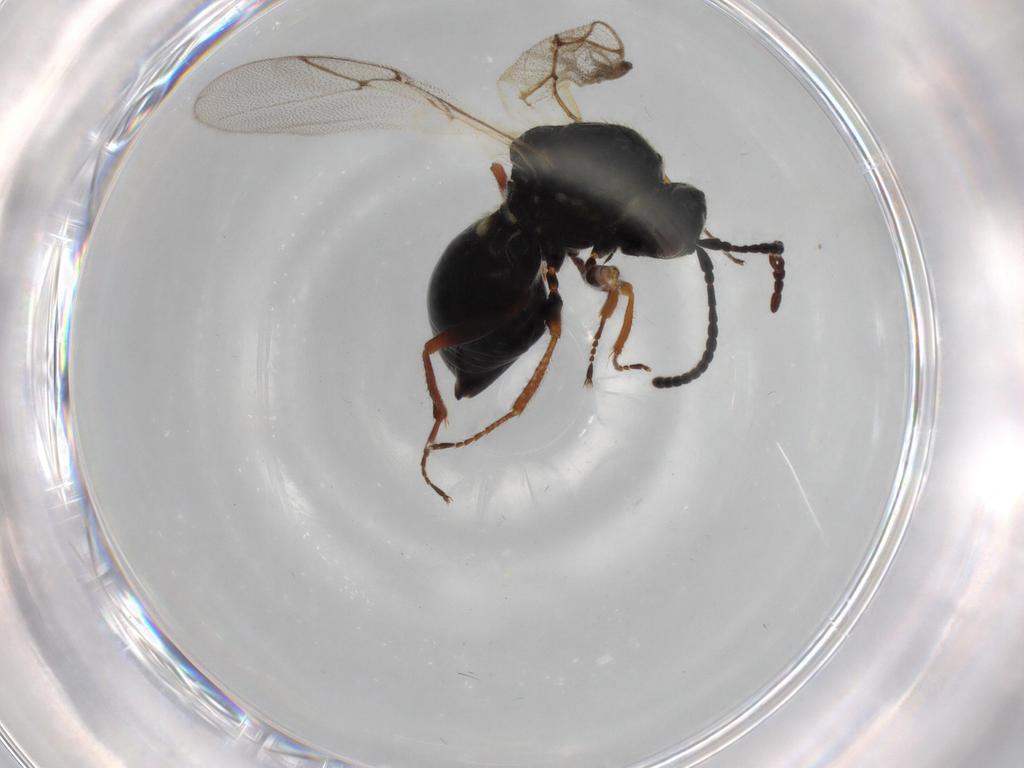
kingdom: Animalia
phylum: Arthropoda
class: Insecta
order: Hymenoptera
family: Figitidae
